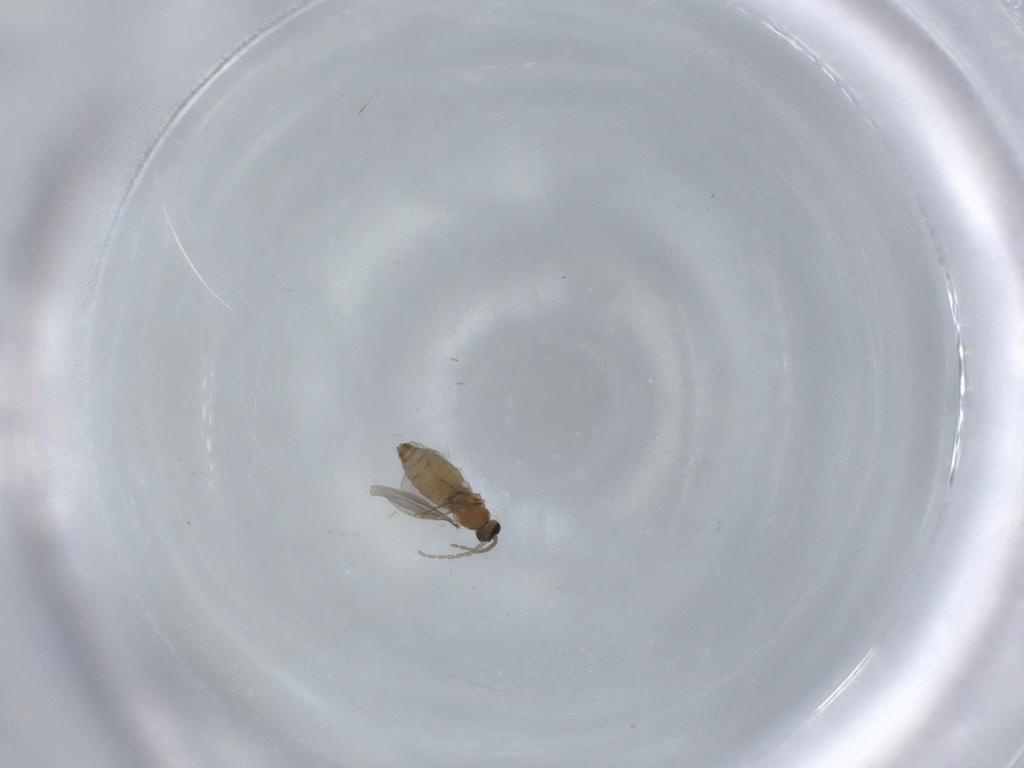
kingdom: Animalia
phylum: Arthropoda
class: Insecta
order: Diptera
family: Cecidomyiidae
